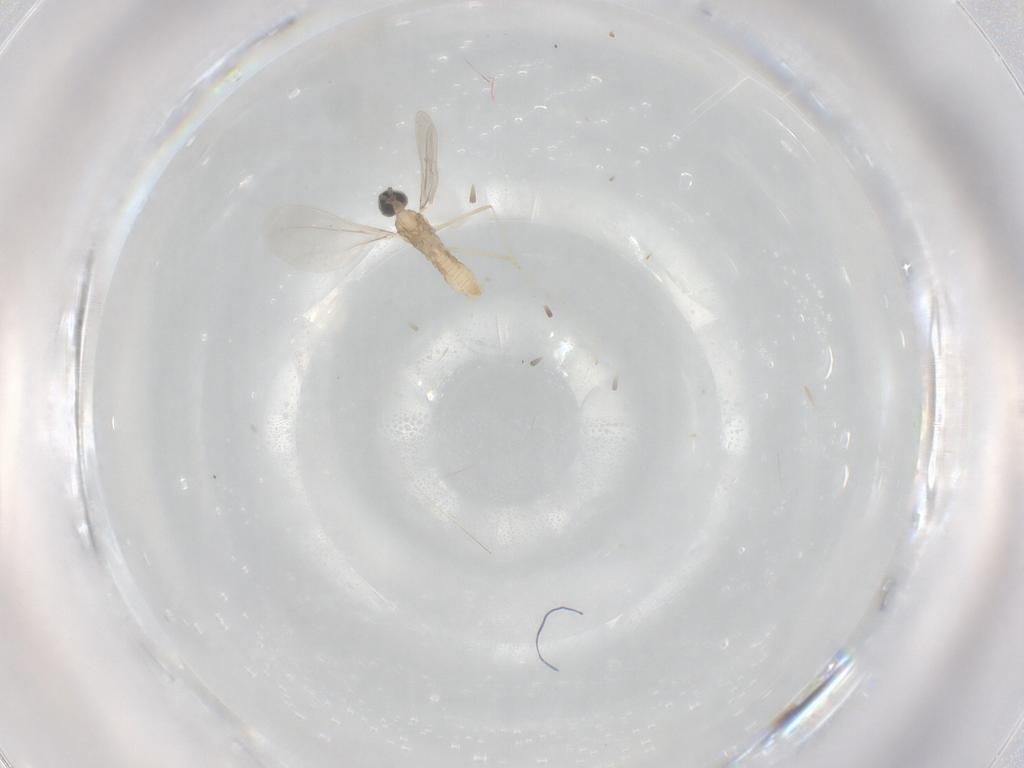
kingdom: Animalia
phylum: Arthropoda
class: Insecta
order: Diptera
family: Cecidomyiidae
